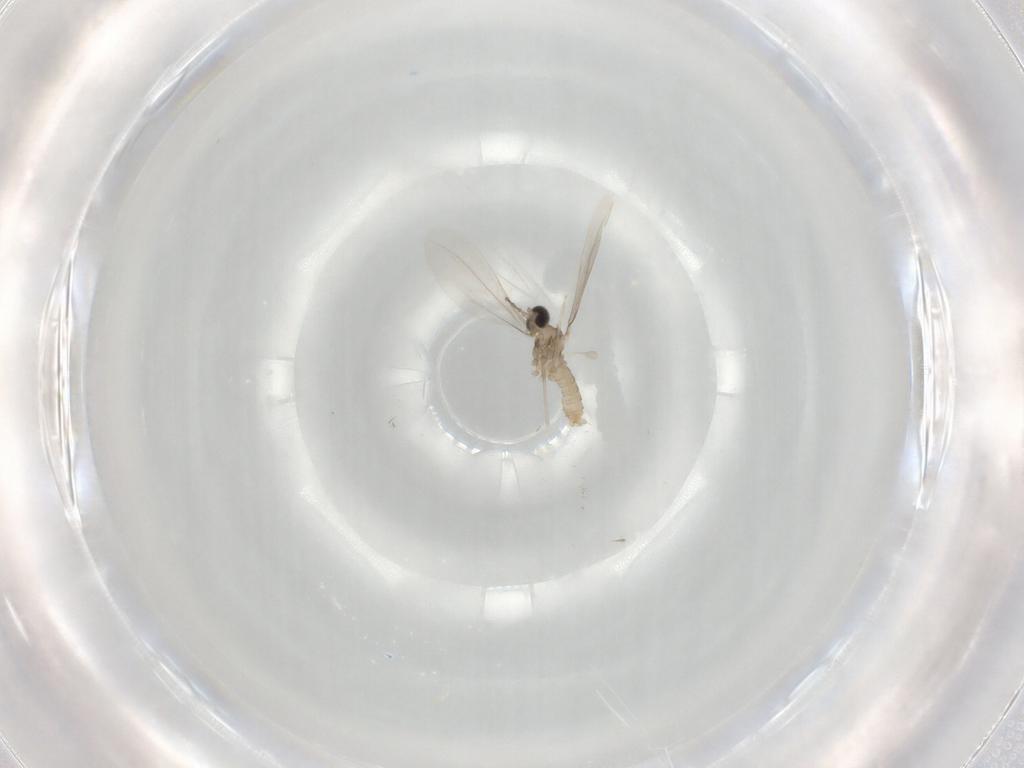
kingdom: Animalia
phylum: Arthropoda
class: Insecta
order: Diptera
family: Cecidomyiidae
